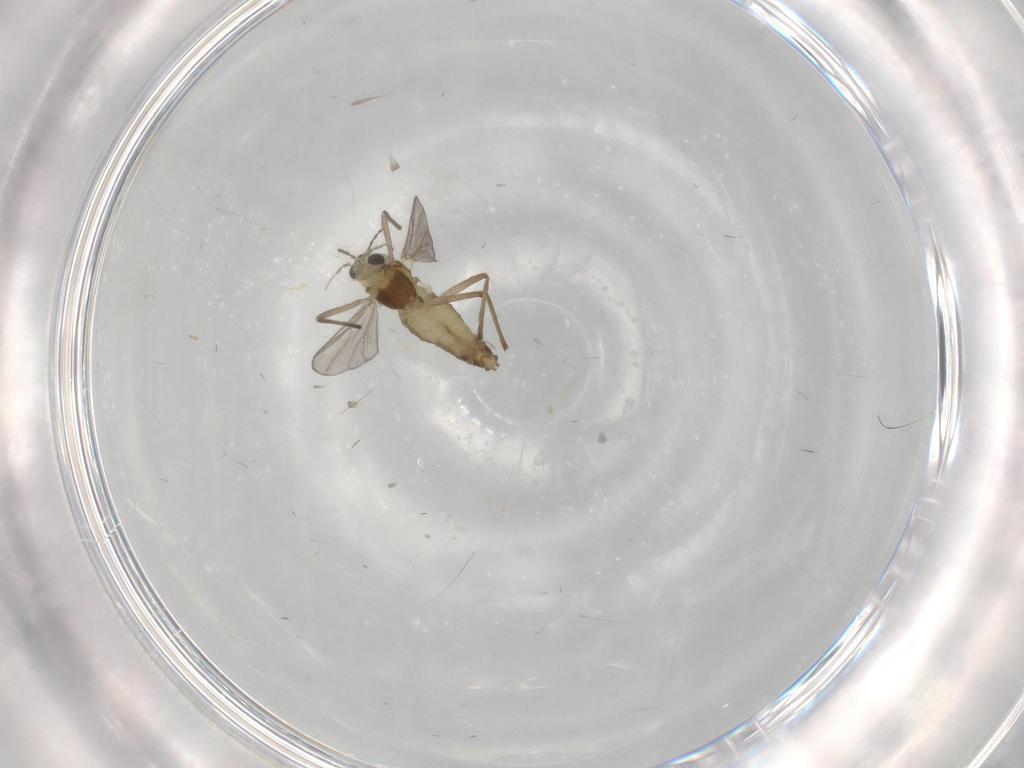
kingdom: Animalia
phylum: Arthropoda
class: Insecta
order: Diptera
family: Chironomidae
